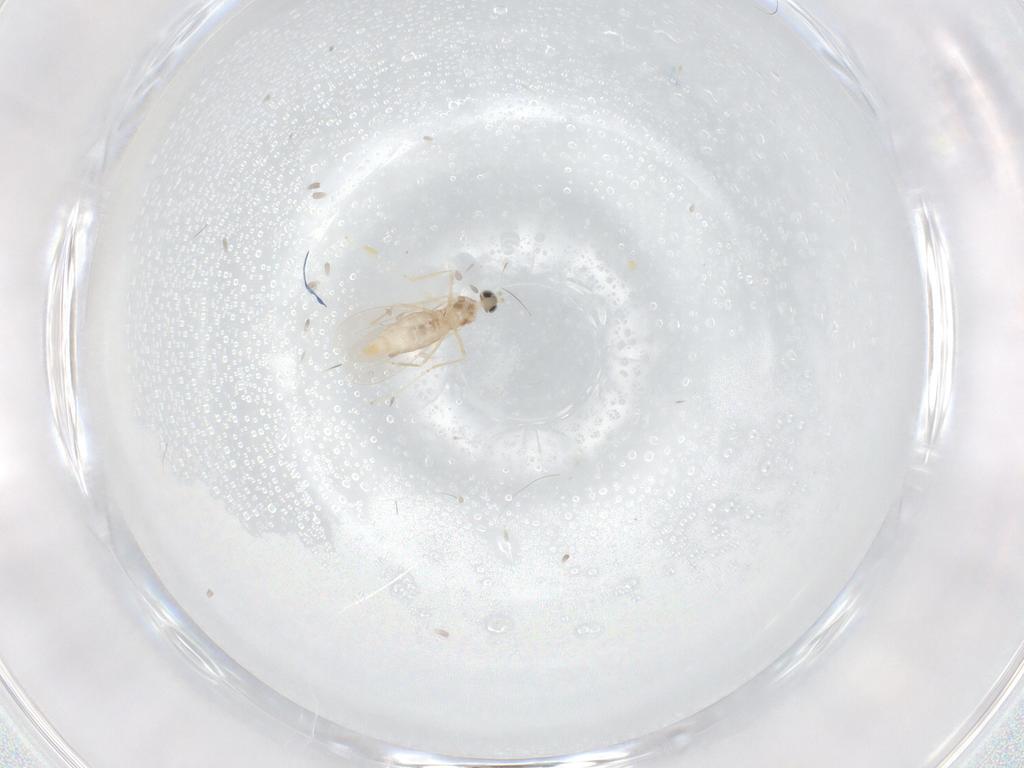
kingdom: Animalia
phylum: Arthropoda
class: Insecta
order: Diptera
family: Cecidomyiidae
